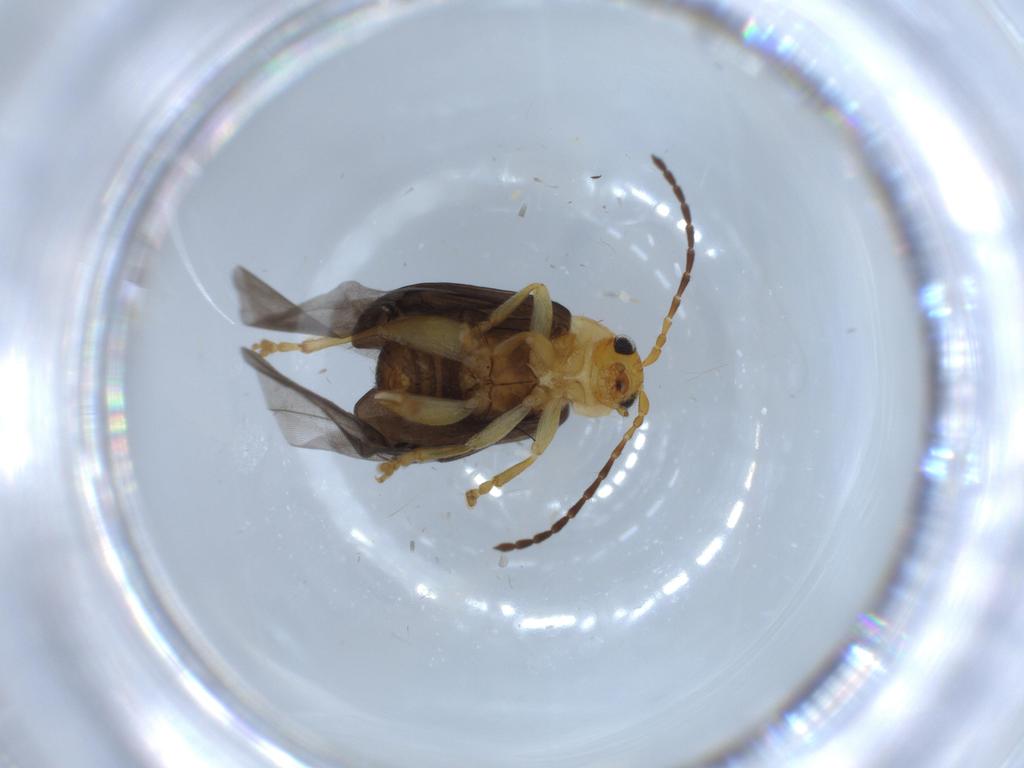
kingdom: Animalia
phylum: Arthropoda
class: Insecta
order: Coleoptera
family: Chrysomelidae
